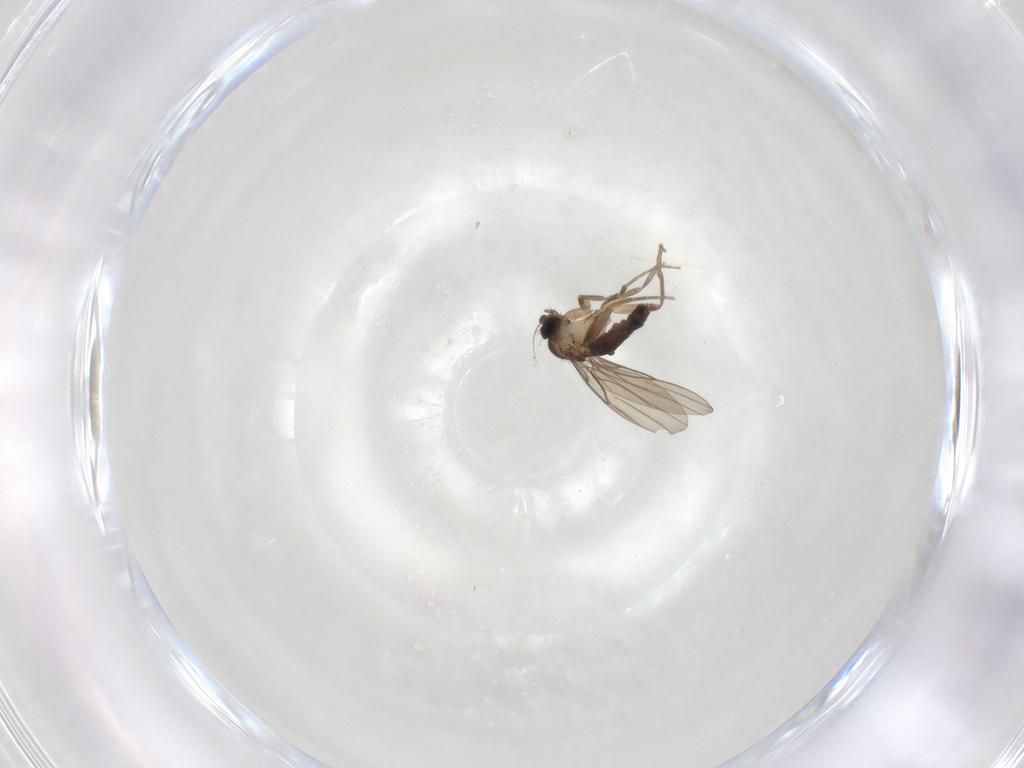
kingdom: Animalia
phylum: Arthropoda
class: Insecta
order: Diptera
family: Phoridae
